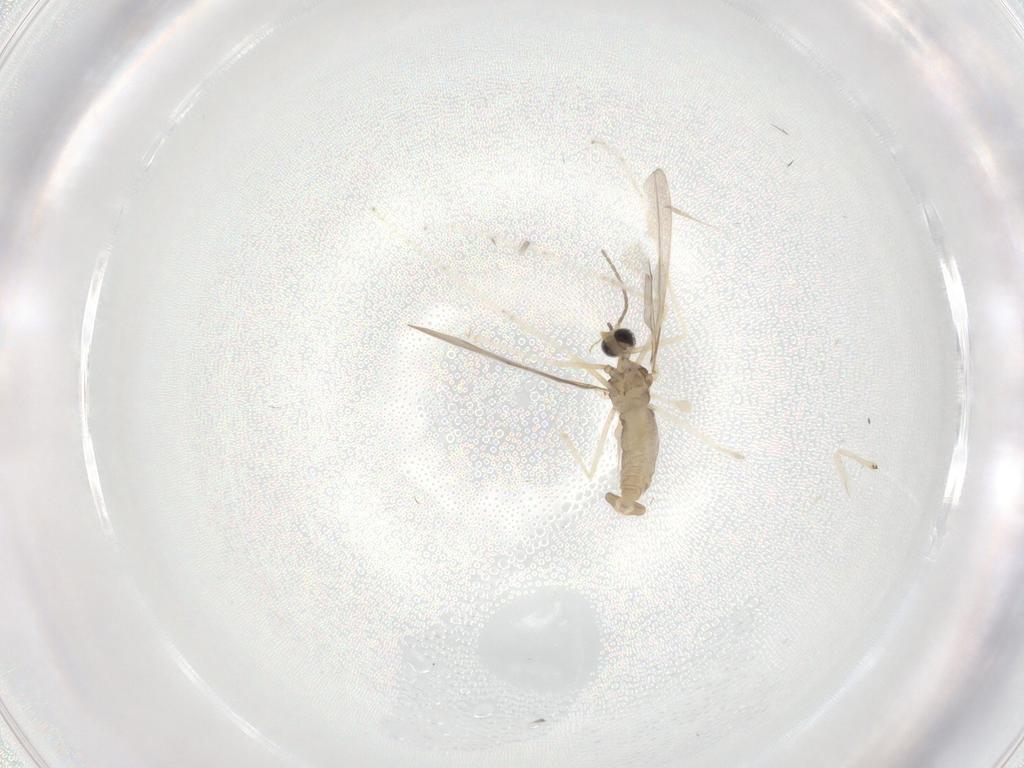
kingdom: Animalia
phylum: Arthropoda
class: Insecta
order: Diptera
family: Cecidomyiidae
